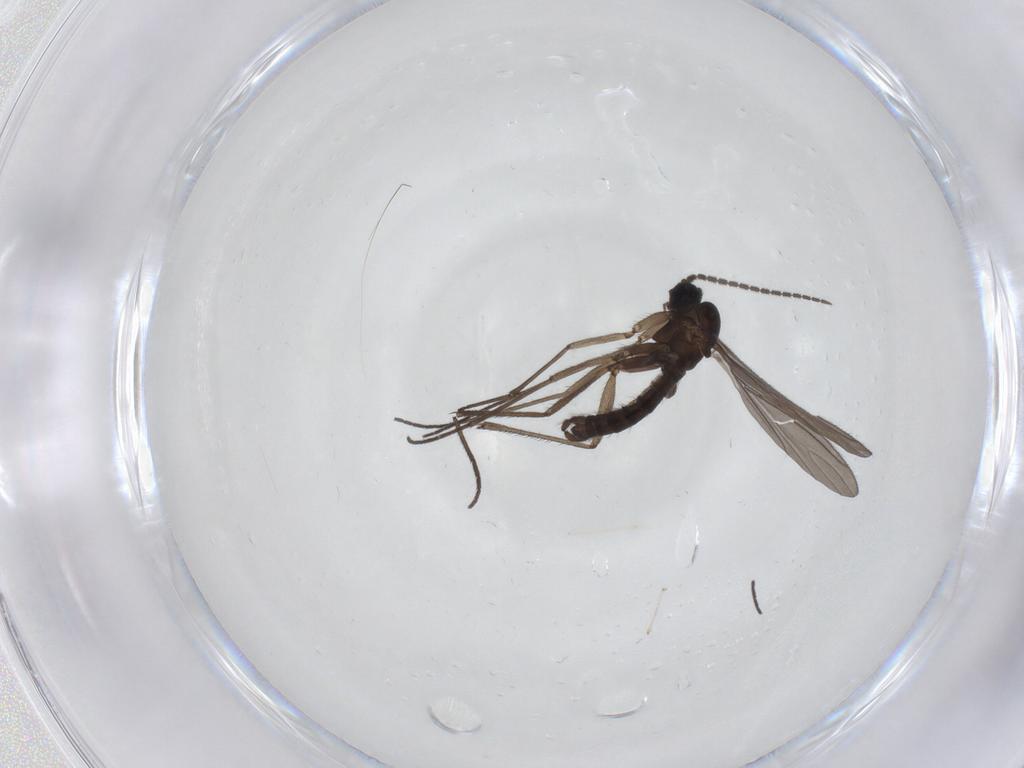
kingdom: Animalia
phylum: Arthropoda
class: Insecta
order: Diptera
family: Sciaridae
